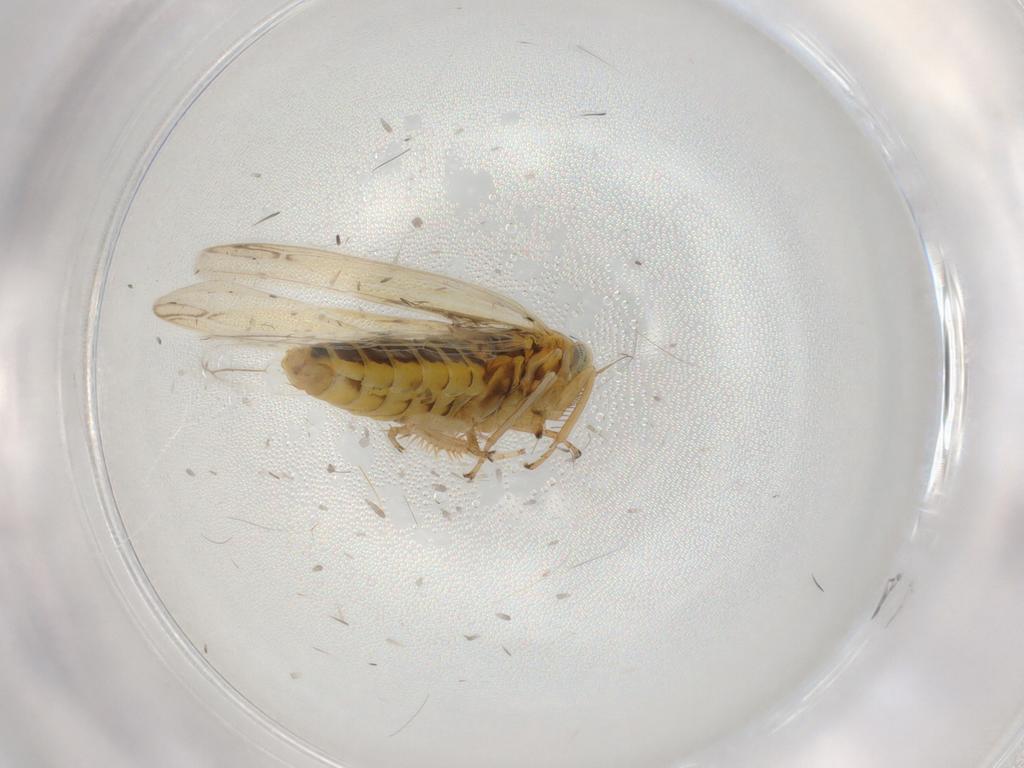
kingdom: Animalia
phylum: Arthropoda
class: Insecta
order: Hemiptera
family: Cicadellidae
